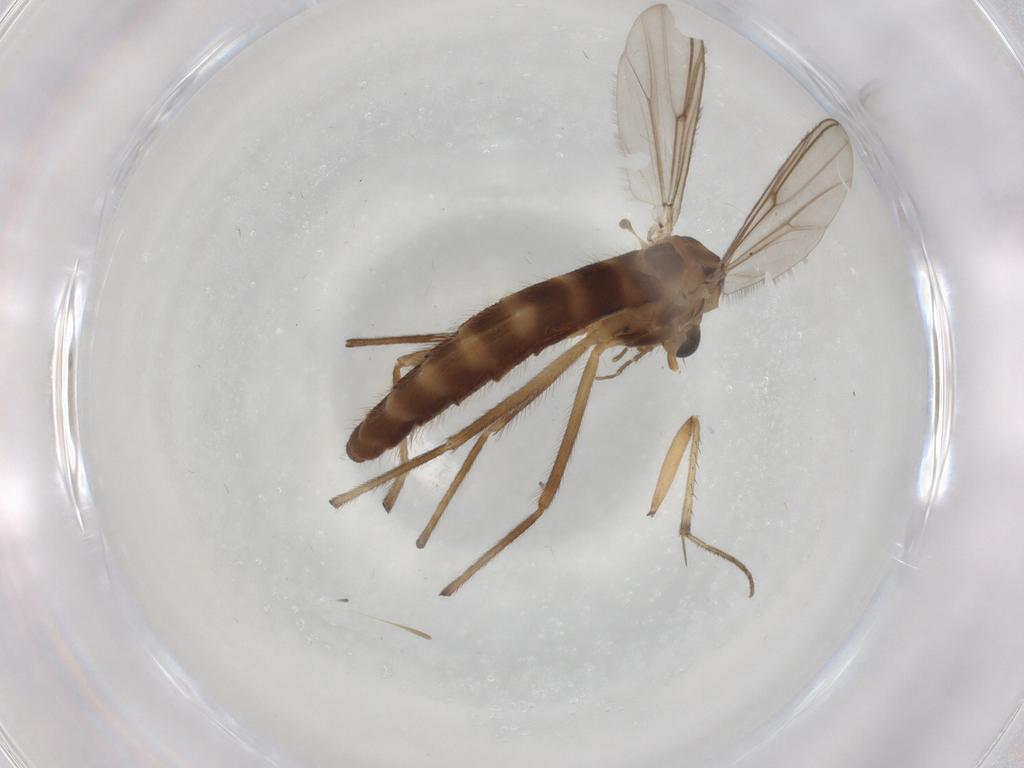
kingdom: Animalia
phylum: Arthropoda
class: Insecta
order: Diptera
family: Chironomidae
